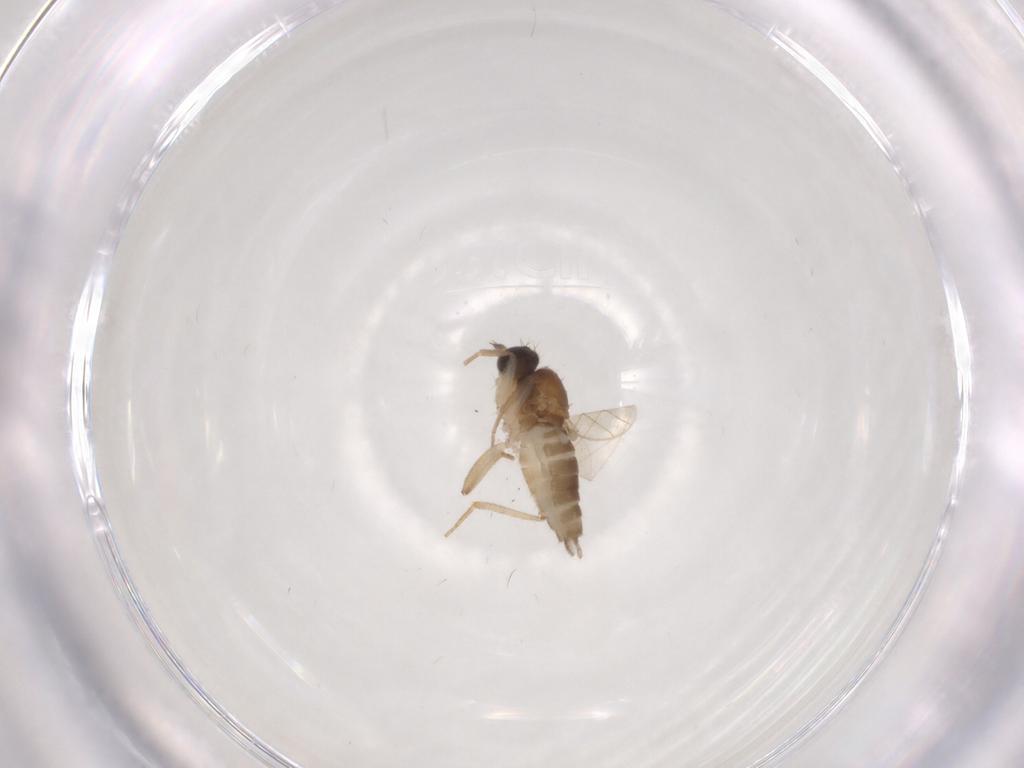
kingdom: Animalia
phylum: Arthropoda
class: Insecta
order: Diptera
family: Hybotidae
